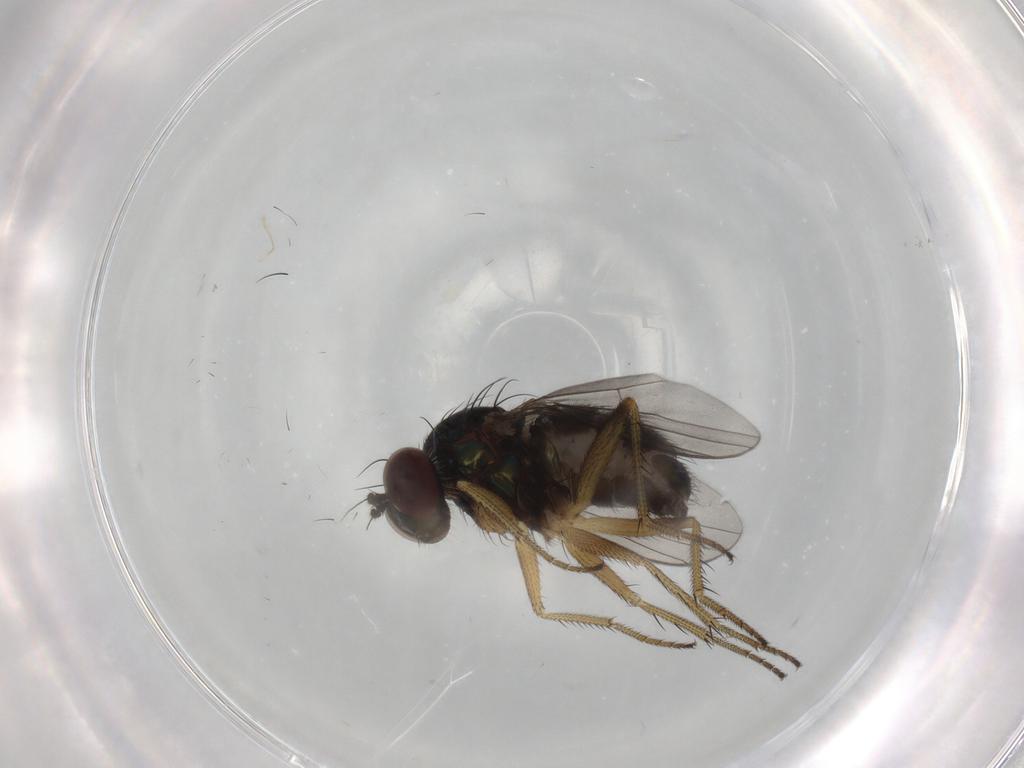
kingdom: Animalia
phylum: Arthropoda
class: Insecta
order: Diptera
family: Dolichopodidae
